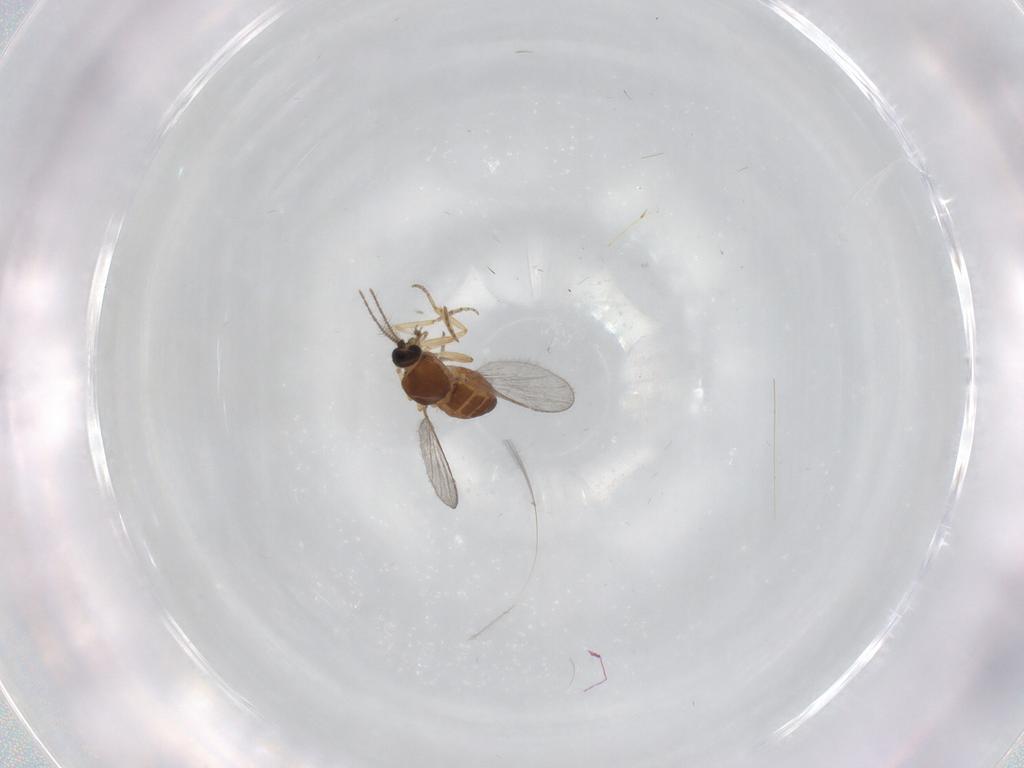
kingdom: Animalia
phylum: Arthropoda
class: Insecta
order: Diptera
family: Ceratopogonidae
